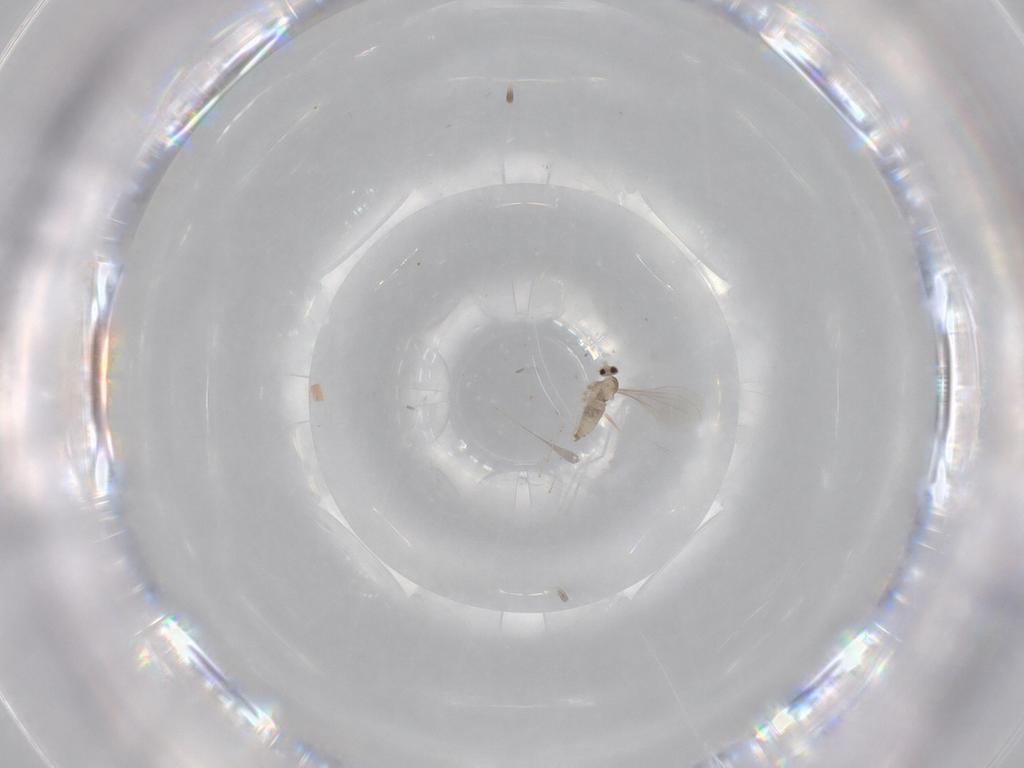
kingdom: Animalia
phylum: Arthropoda
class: Insecta
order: Diptera
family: Cecidomyiidae
